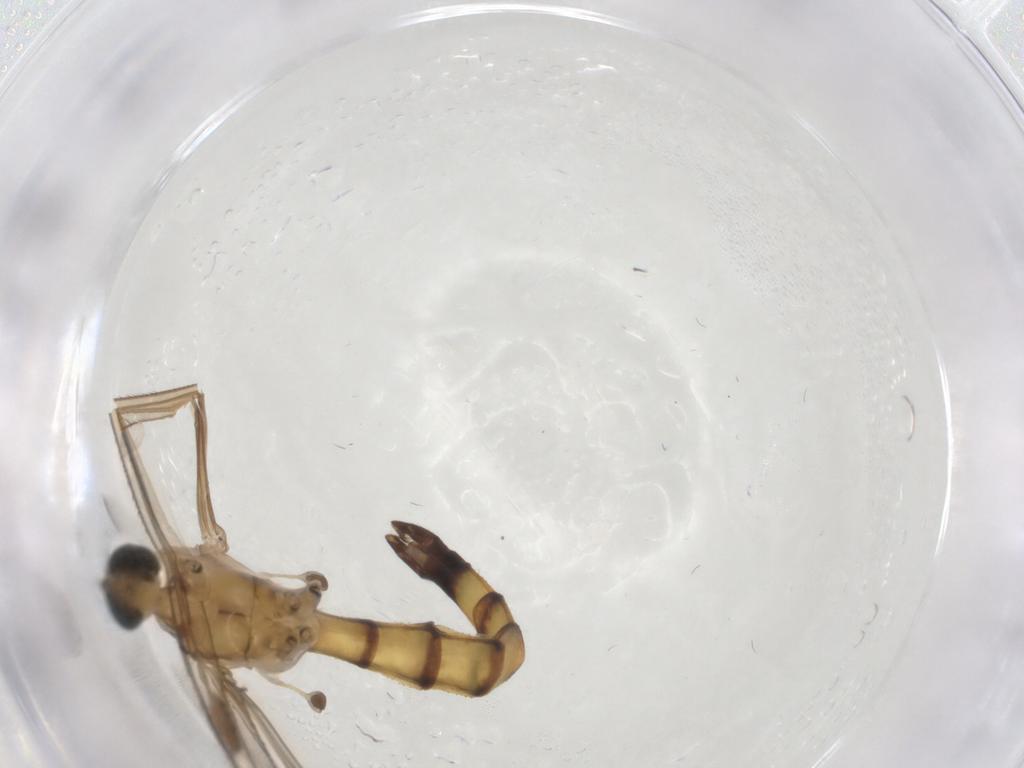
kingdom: Animalia
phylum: Arthropoda
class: Insecta
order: Diptera
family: Limoniidae
